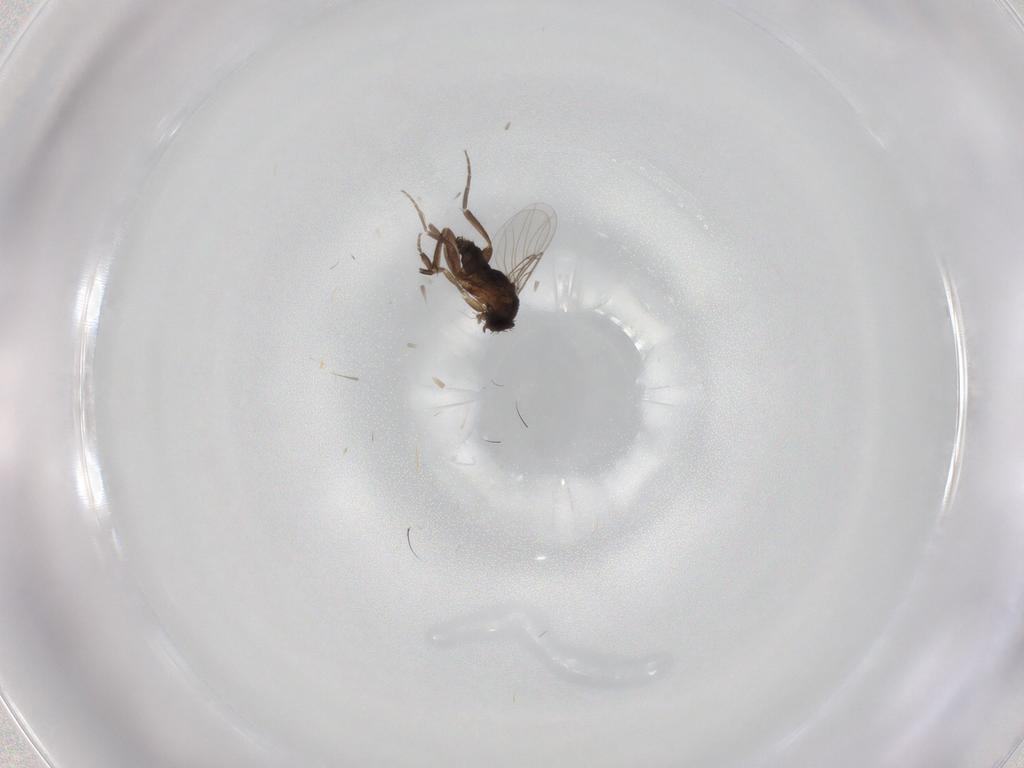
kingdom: Animalia
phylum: Arthropoda
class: Insecta
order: Diptera
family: Phoridae
